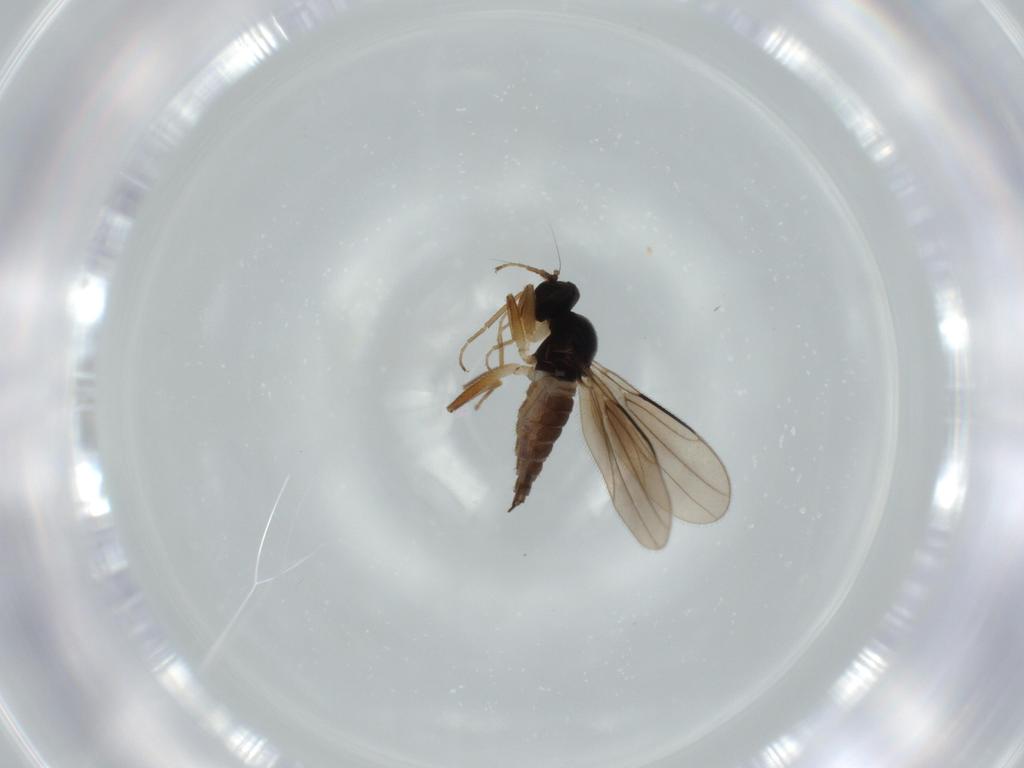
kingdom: Animalia
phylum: Arthropoda
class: Insecta
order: Diptera
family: Hybotidae
